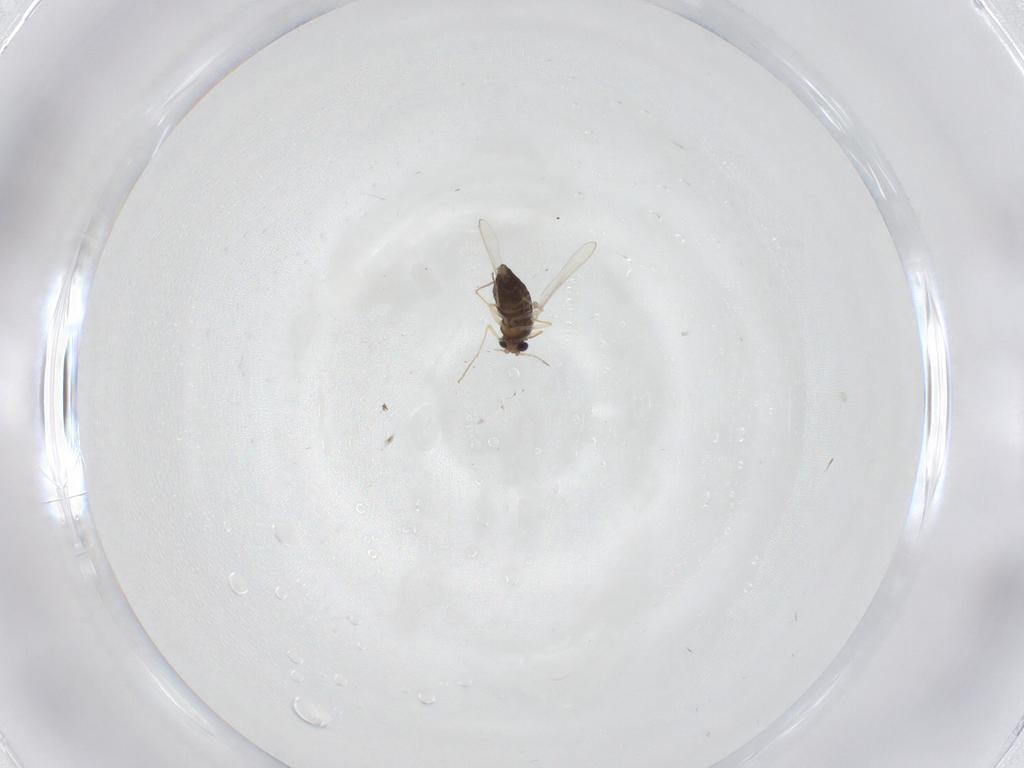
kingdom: Animalia
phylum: Arthropoda
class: Insecta
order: Diptera
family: Chironomidae
